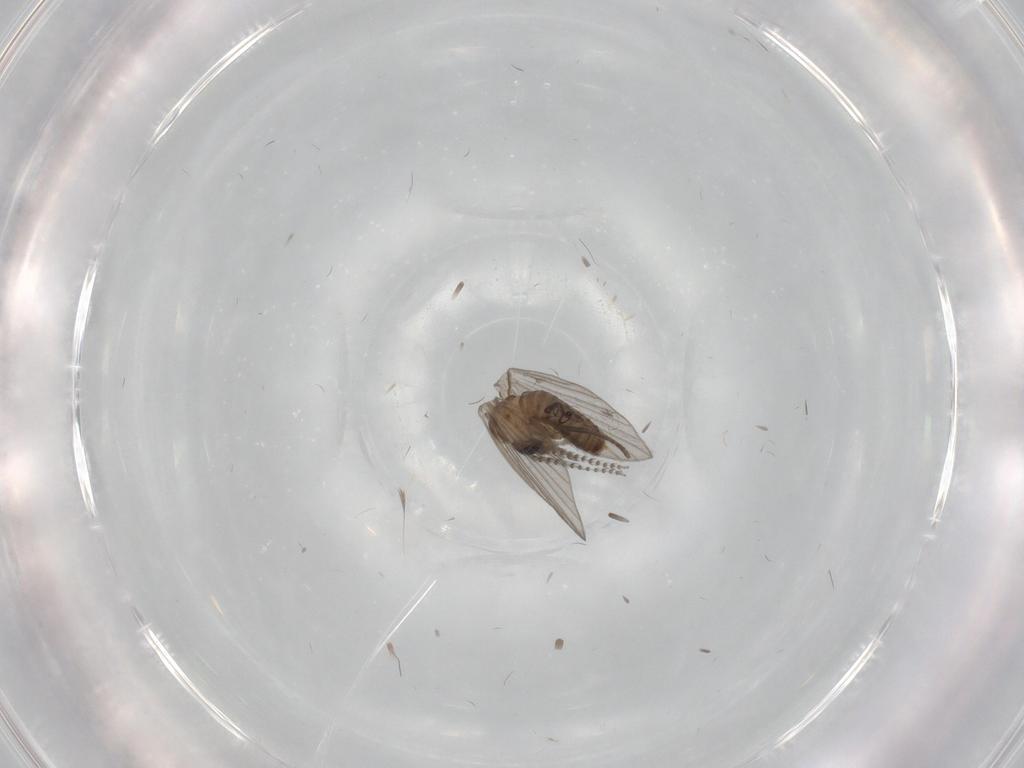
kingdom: Animalia
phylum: Arthropoda
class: Insecta
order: Diptera
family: Psychodidae
